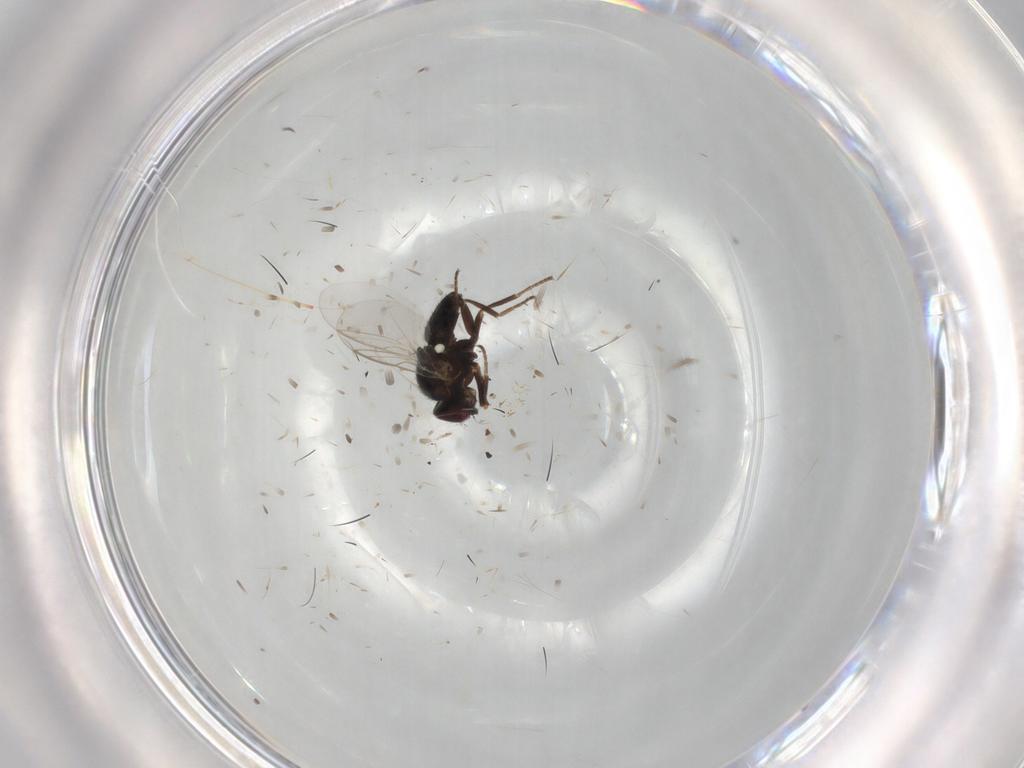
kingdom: Animalia
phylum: Arthropoda
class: Insecta
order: Diptera
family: Agromyzidae
